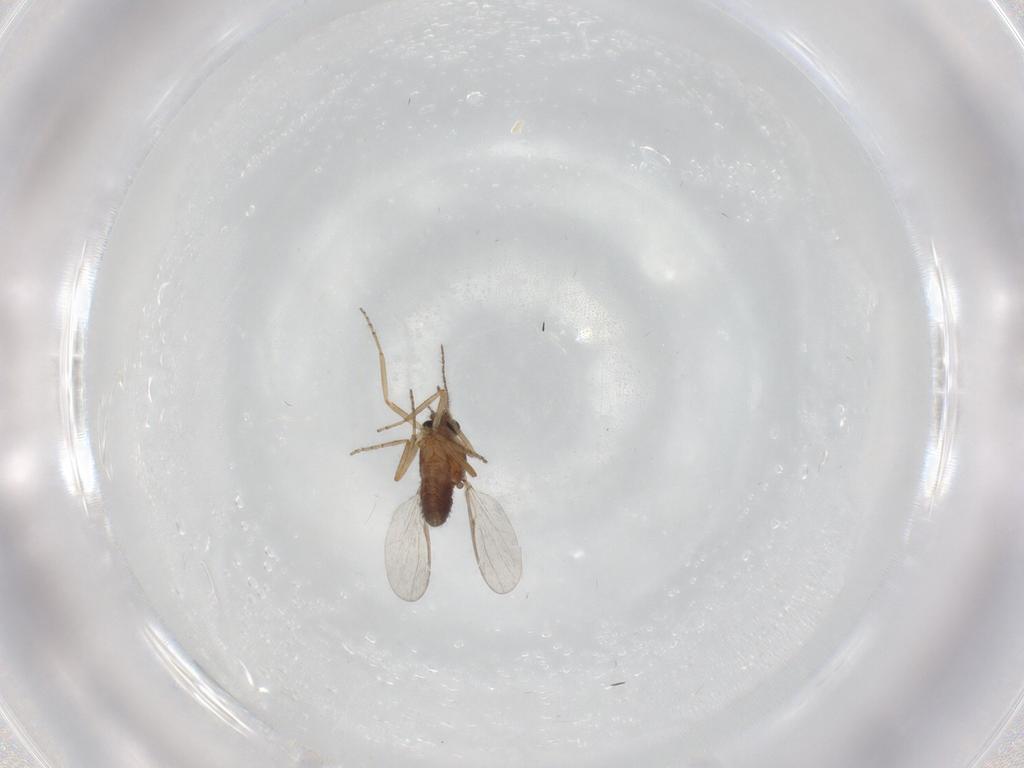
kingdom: Animalia
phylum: Arthropoda
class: Insecta
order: Diptera
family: Ceratopogonidae
